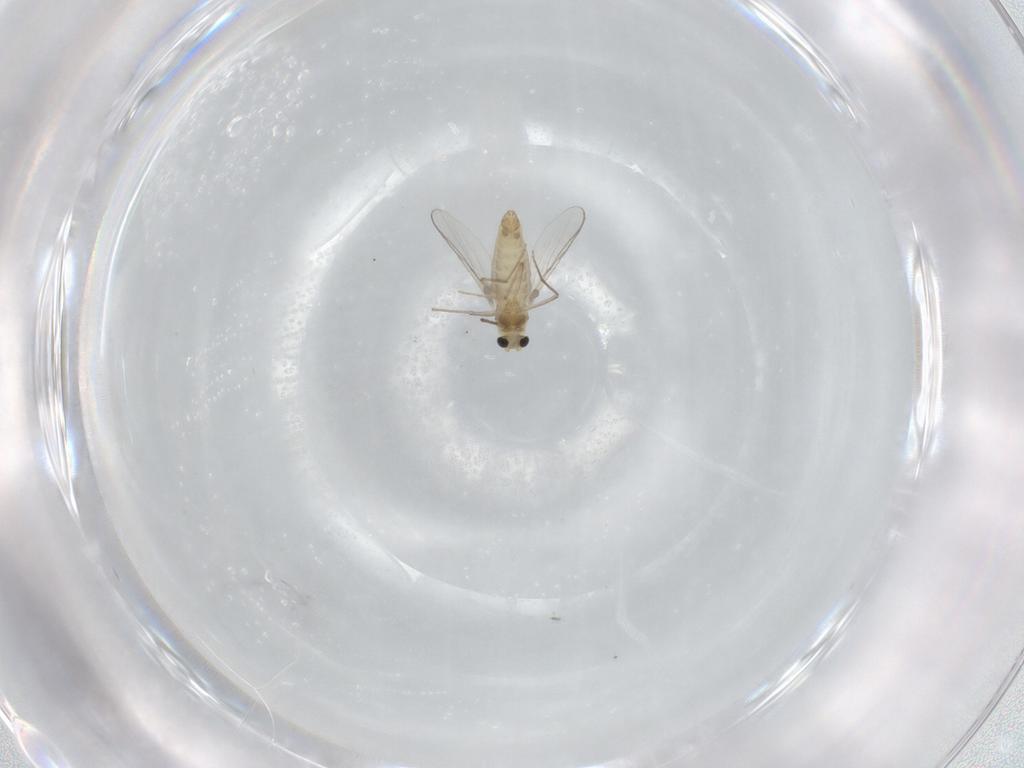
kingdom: Animalia
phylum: Arthropoda
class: Insecta
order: Diptera
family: Chironomidae
